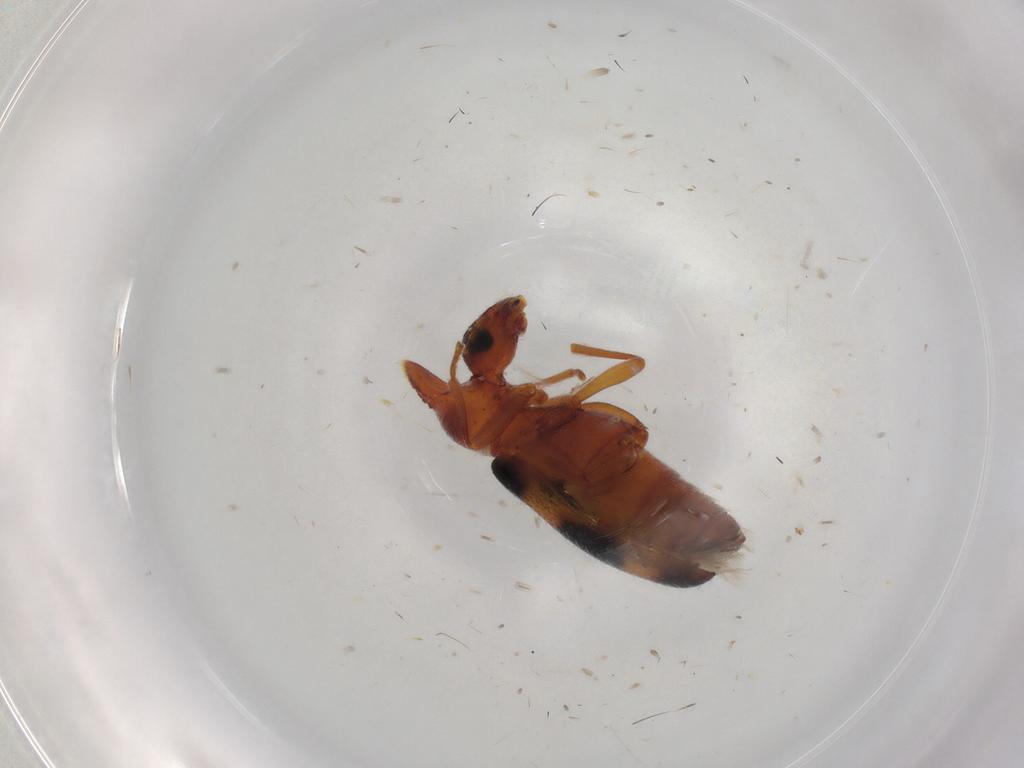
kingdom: Animalia
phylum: Arthropoda
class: Insecta
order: Coleoptera
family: Anthicidae
